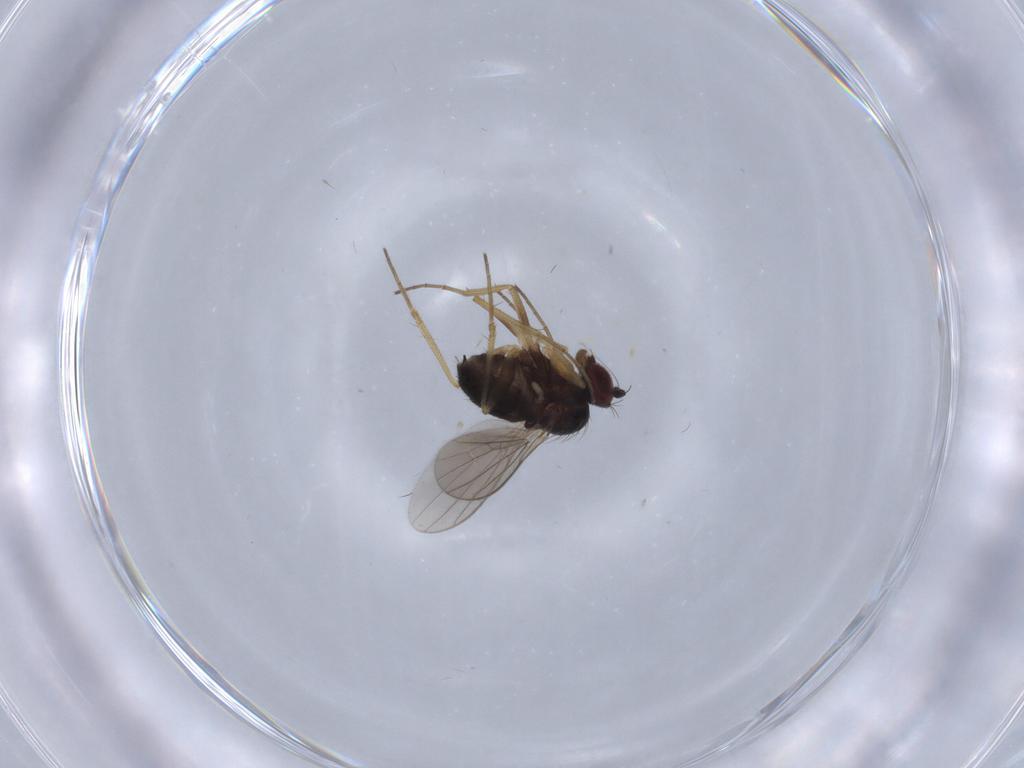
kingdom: Animalia
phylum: Arthropoda
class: Insecta
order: Diptera
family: Dolichopodidae
